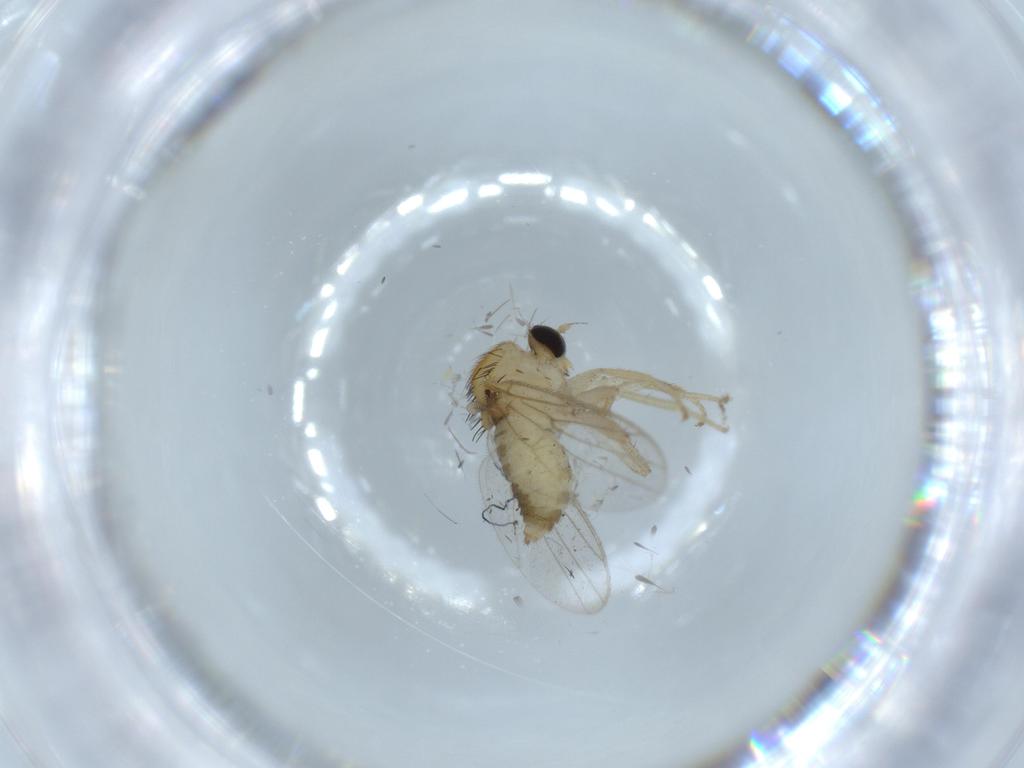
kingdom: Animalia
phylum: Arthropoda
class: Insecta
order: Diptera
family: Hybotidae
